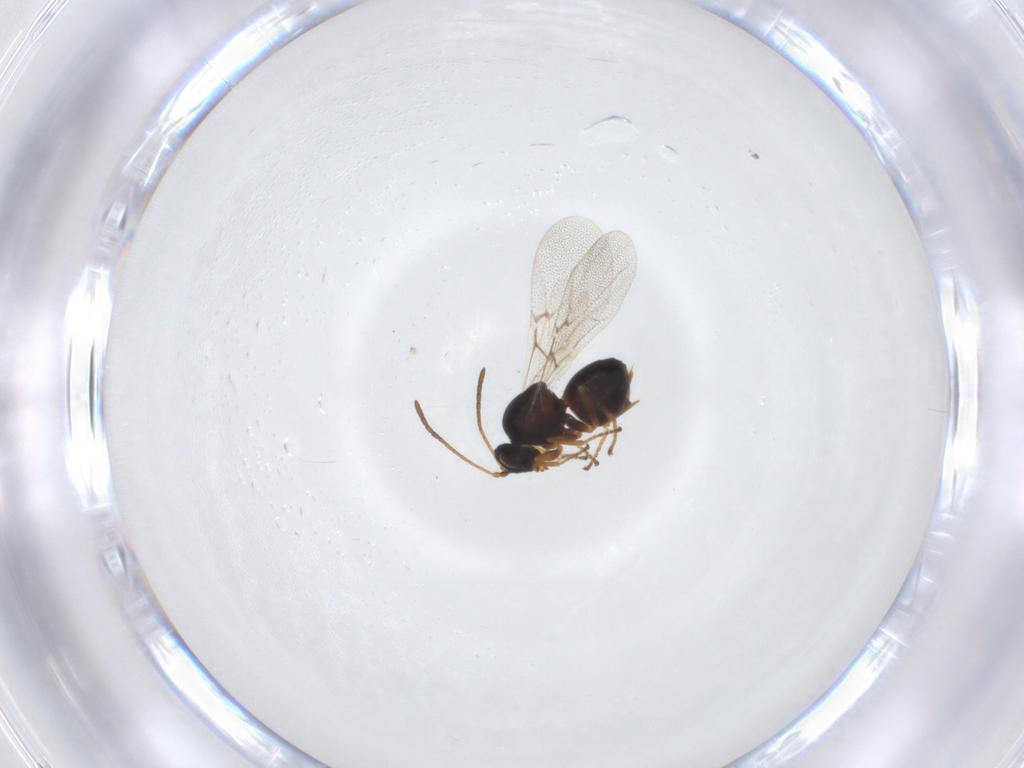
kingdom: Animalia
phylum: Arthropoda
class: Insecta
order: Hymenoptera
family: Cynipidae
